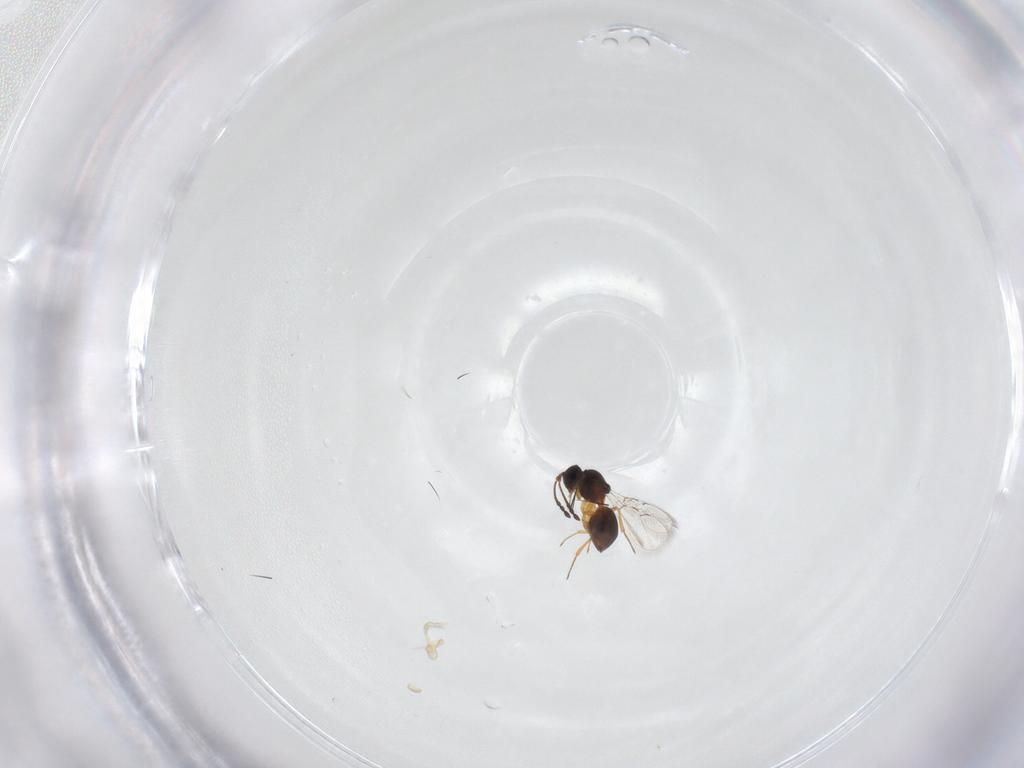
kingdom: Animalia
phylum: Arthropoda
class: Insecta
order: Hymenoptera
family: Figitidae
